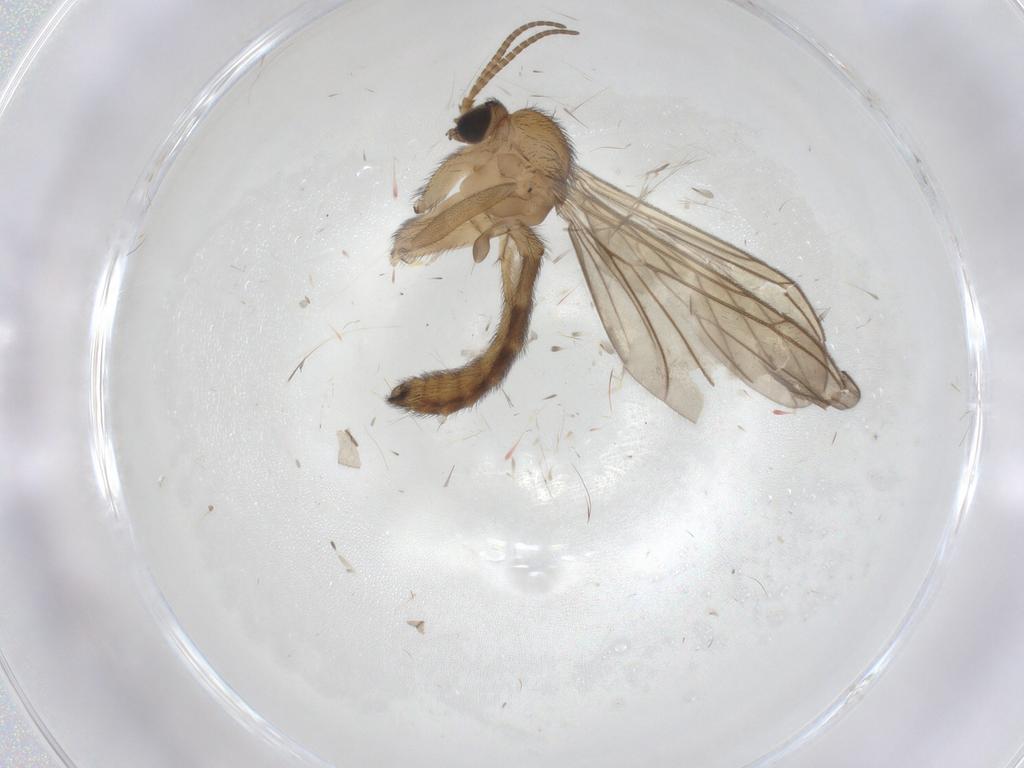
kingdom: Animalia
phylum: Arthropoda
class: Insecta
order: Diptera
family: Keroplatidae
